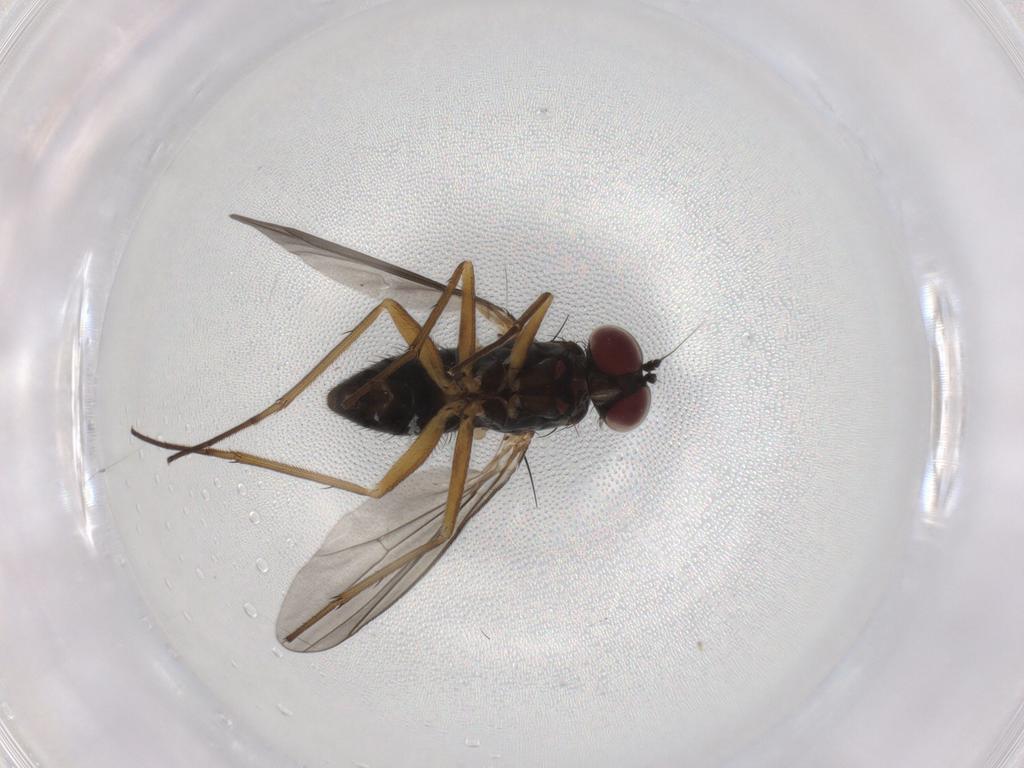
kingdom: Animalia
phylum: Arthropoda
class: Insecta
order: Diptera
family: Dolichopodidae
